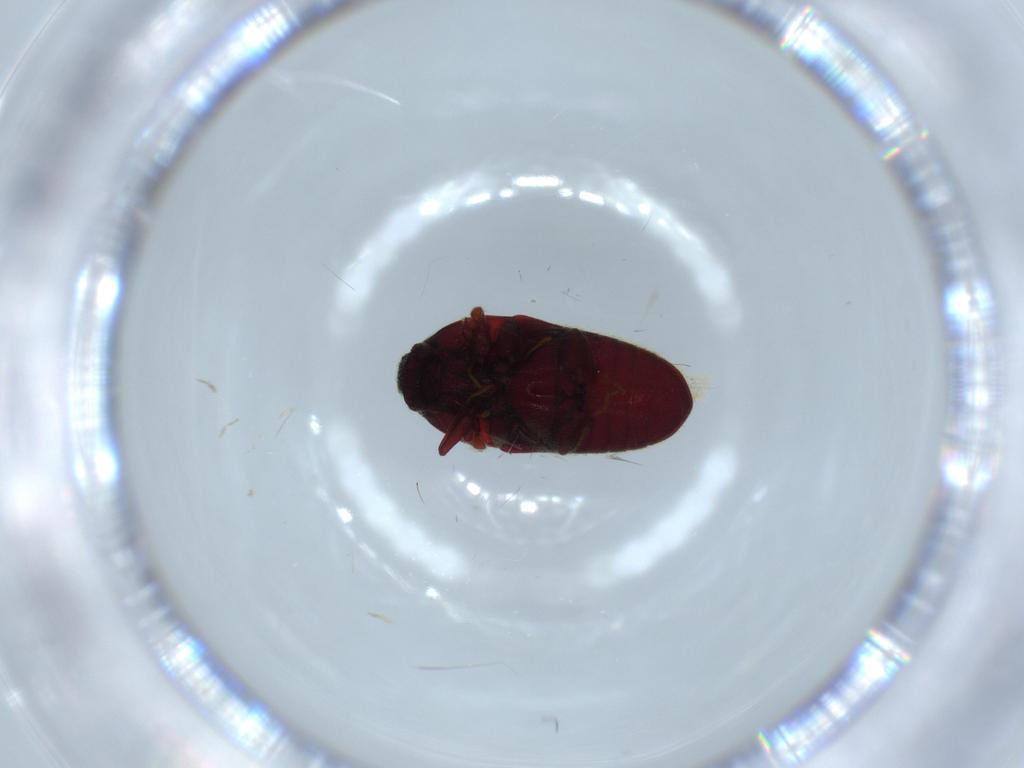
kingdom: Animalia
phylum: Arthropoda
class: Insecta
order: Coleoptera
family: Throscidae
